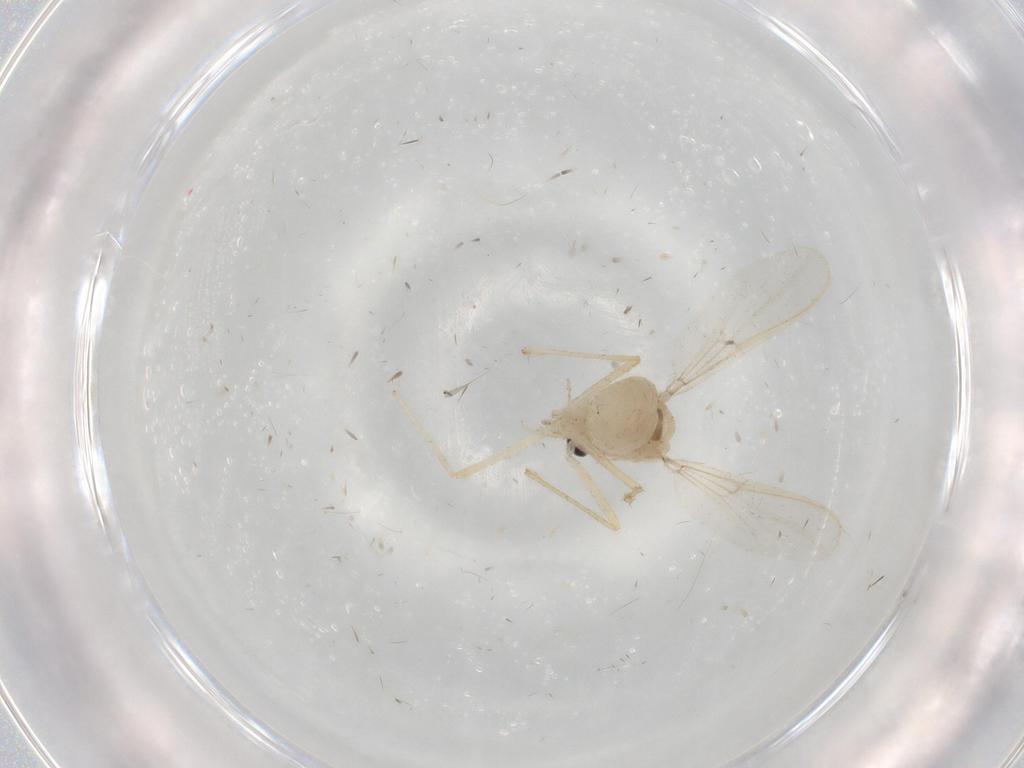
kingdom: Animalia
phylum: Arthropoda
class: Insecta
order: Diptera
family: Chironomidae
